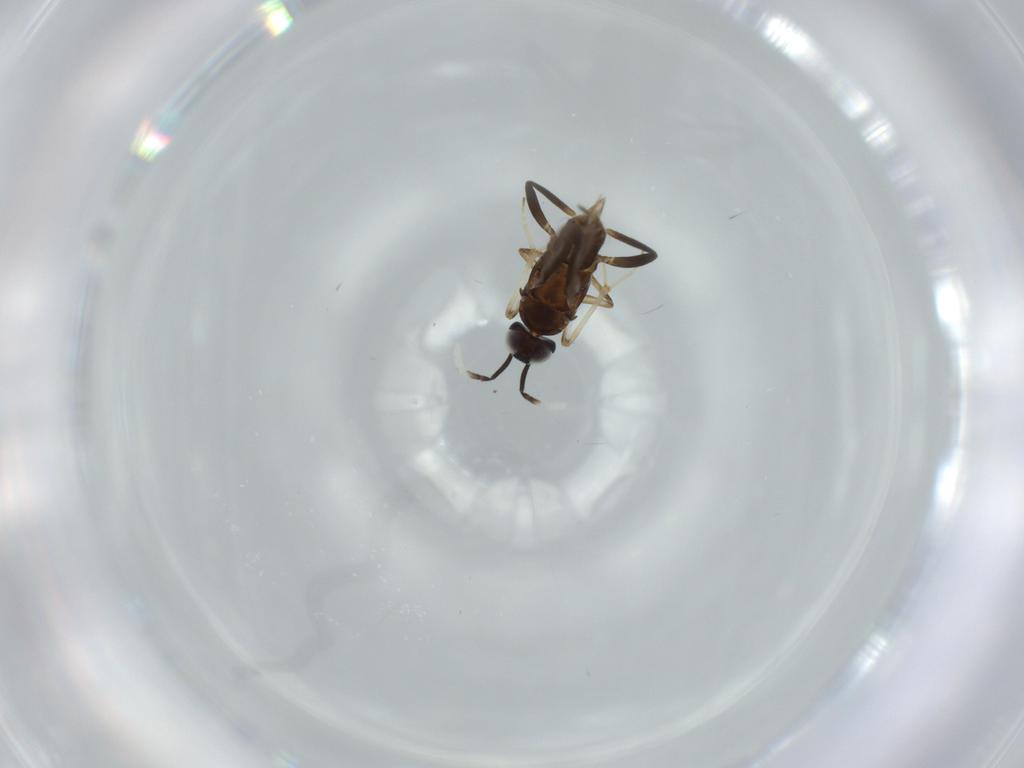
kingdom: Animalia
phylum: Arthropoda
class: Insecta
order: Hymenoptera
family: Encyrtidae
